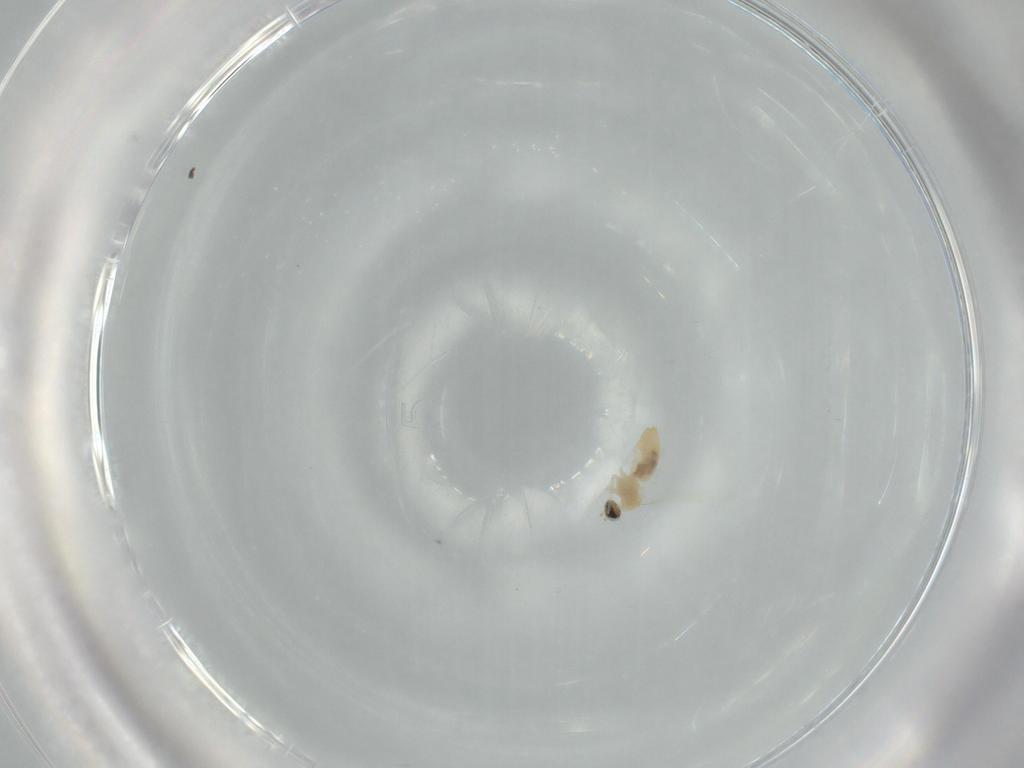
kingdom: Animalia
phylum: Arthropoda
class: Insecta
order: Diptera
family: Cecidomyiidae
